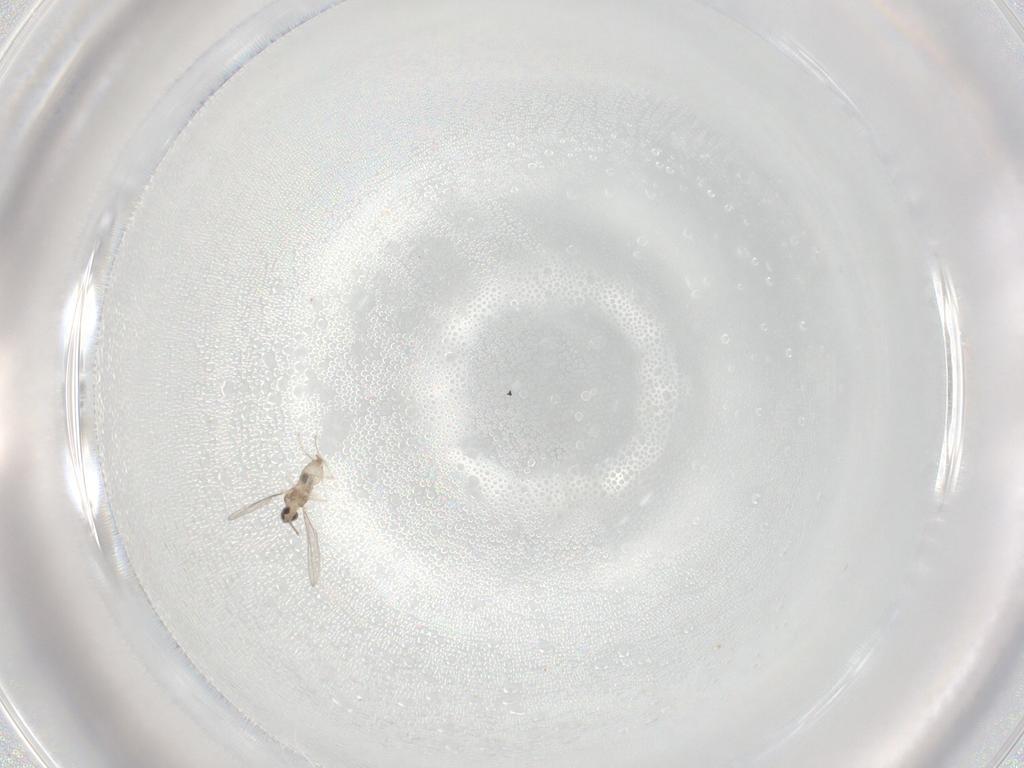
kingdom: Animalia
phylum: Arthropoda
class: Insecta
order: Diptera
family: Cecidomyiidae
